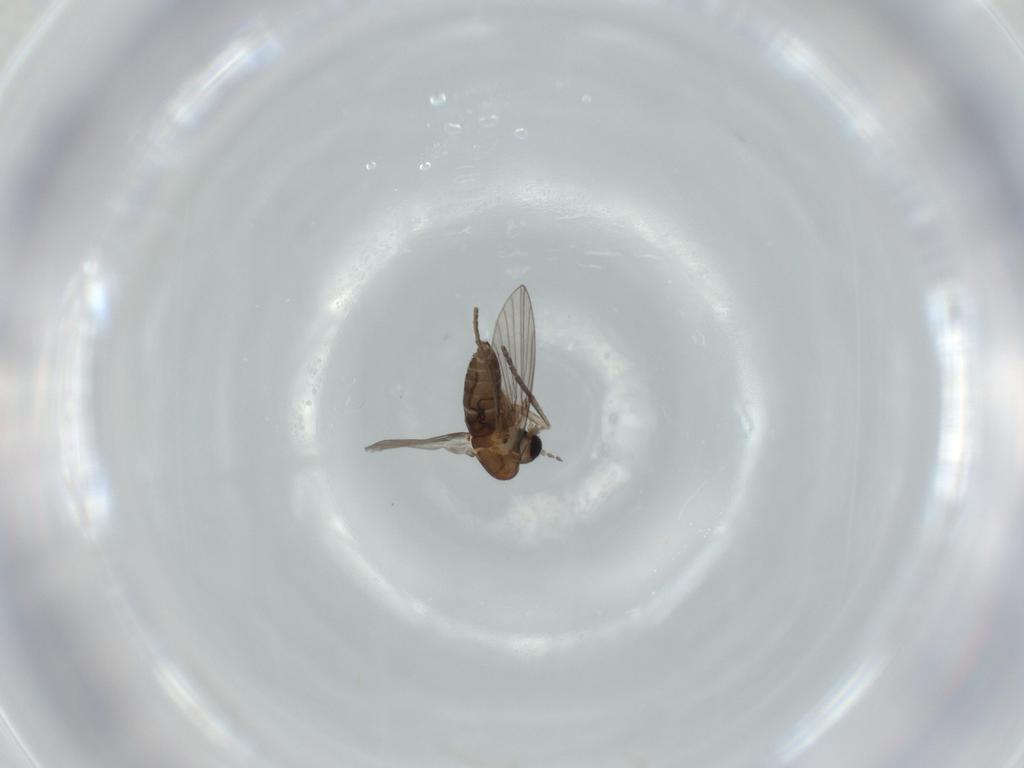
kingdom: Animalia
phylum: Arthropoda
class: Insecta
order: Diptera
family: Psychodidae
